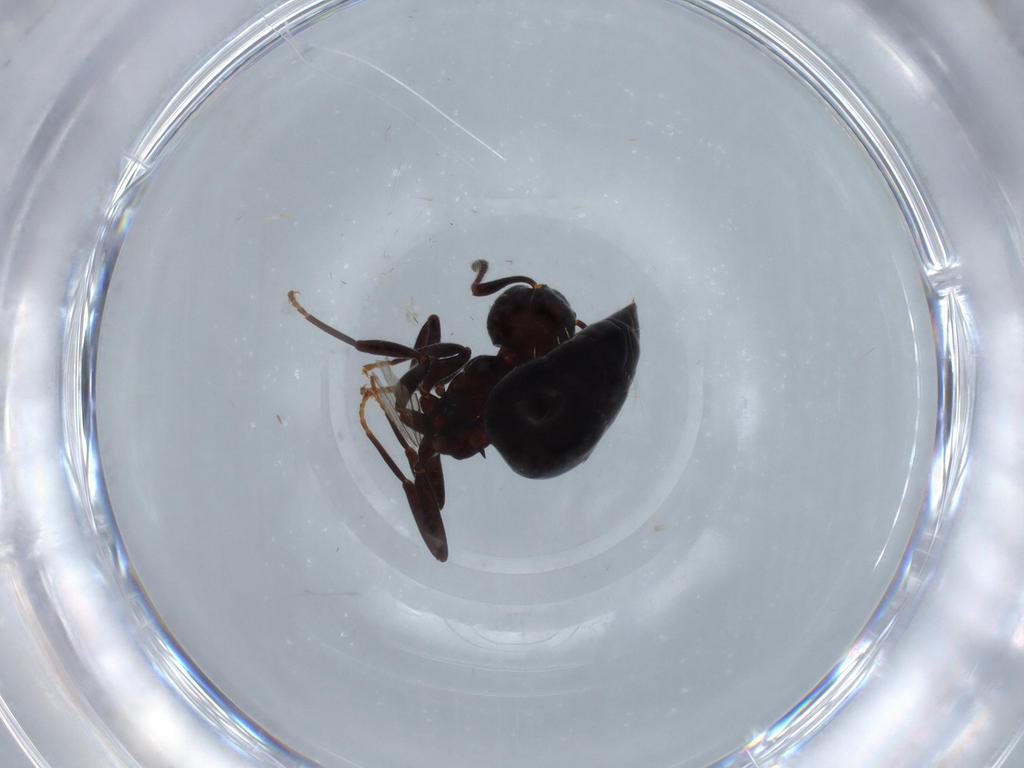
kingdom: Animalia
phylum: Arthropoda
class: Insecta
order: Hymenoptera
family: Formicidae
